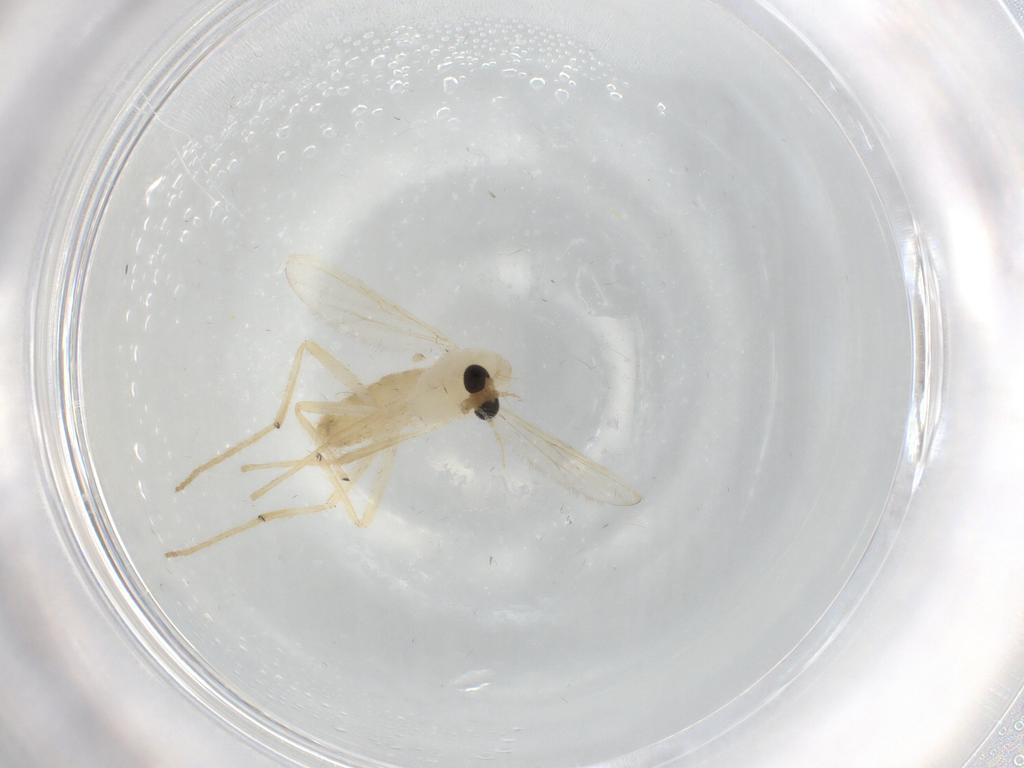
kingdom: Animalia
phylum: Arthropoda
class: Insecta
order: Diptera
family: Chironomidae
